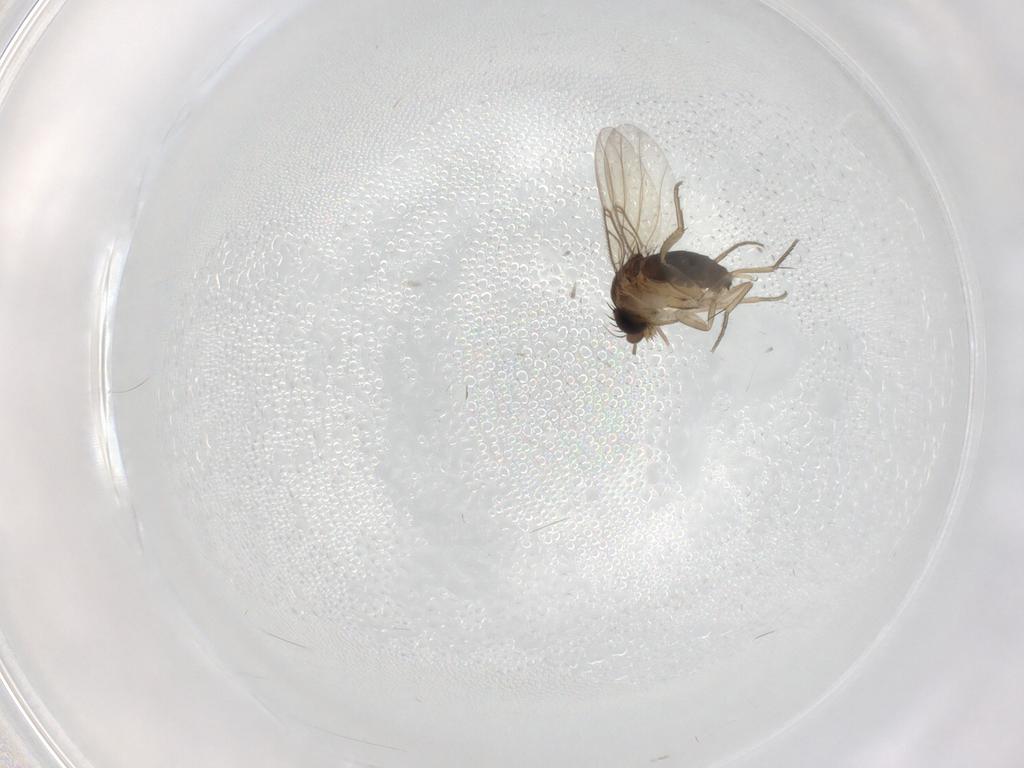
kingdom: Animalia
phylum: Arthropoda
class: Insecta
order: Diptera
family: Phoridae
